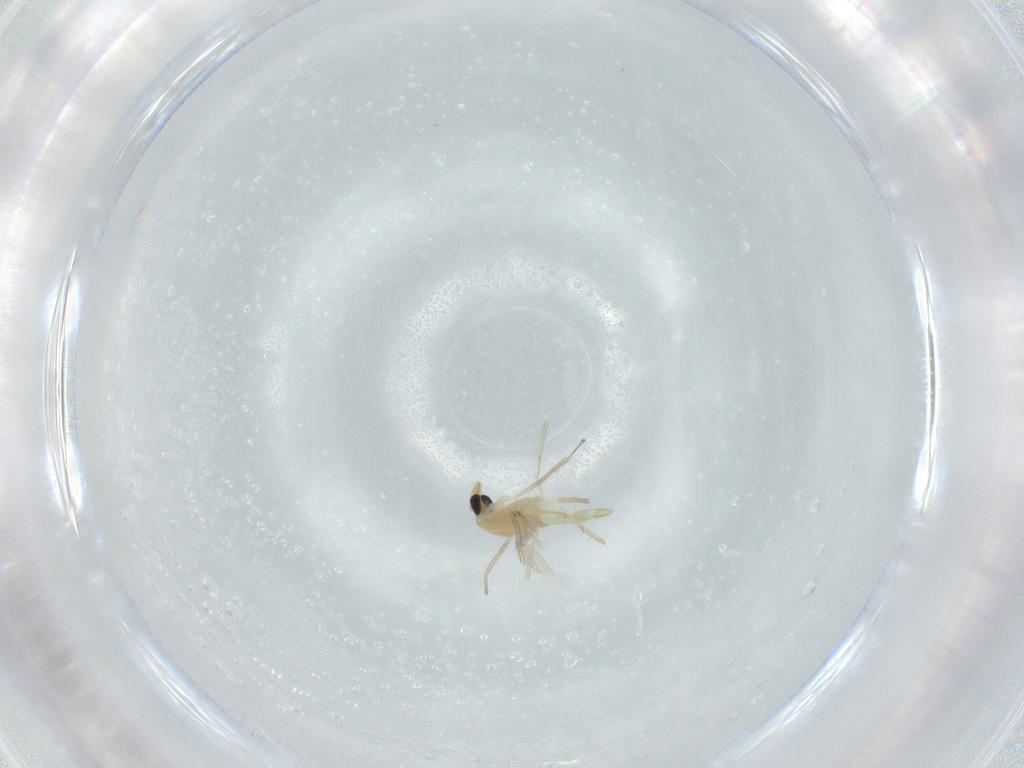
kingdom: Animalia
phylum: Arthropoda
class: Insecta
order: Diptera
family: Chironomidae
